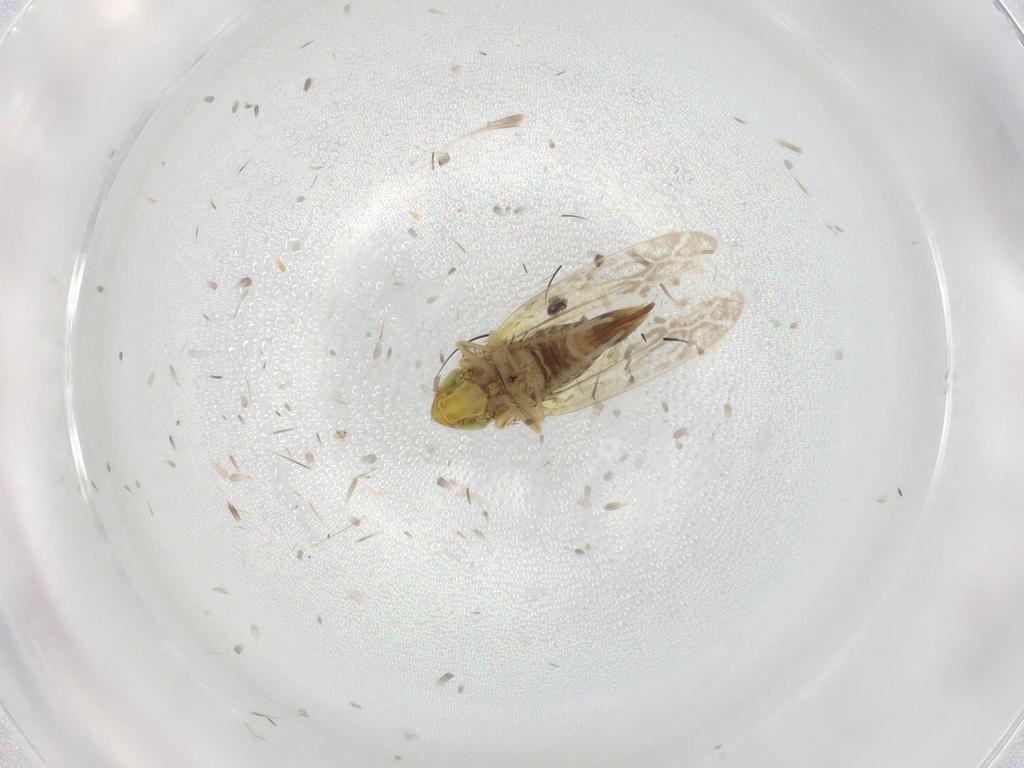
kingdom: Animalia
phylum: Arthropoda
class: Insecta
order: Hemiptera
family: Cicadellidae
